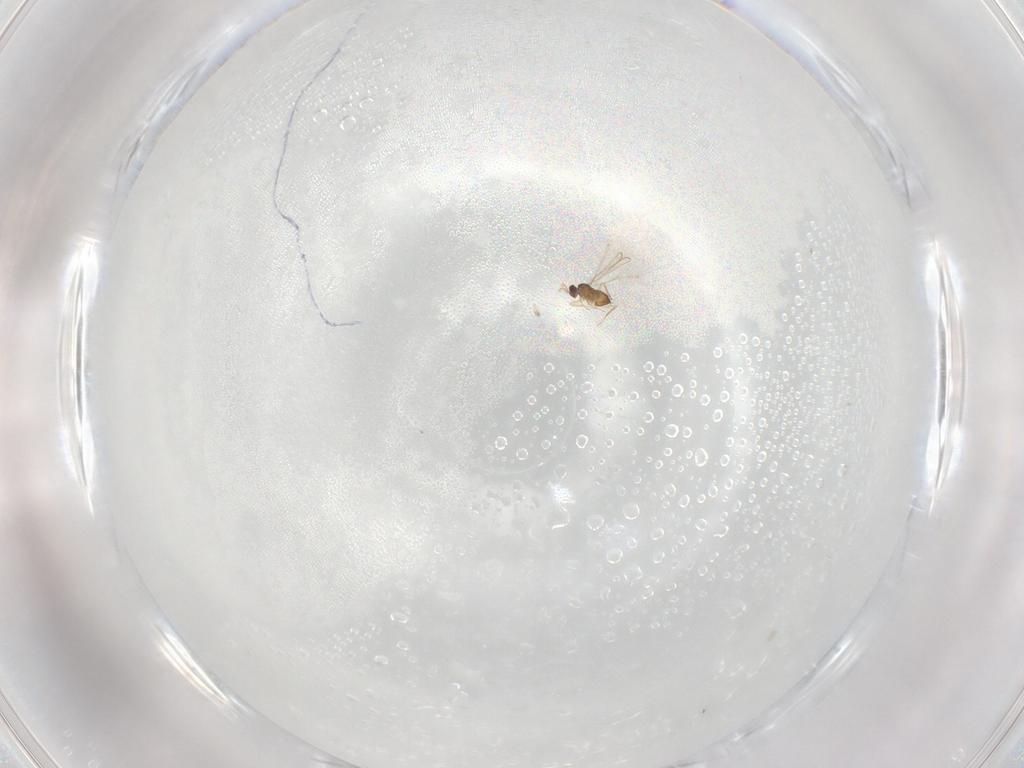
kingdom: Animalia
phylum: Arthropoda
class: Insecta
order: Hymenoptera
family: Mymaridae
